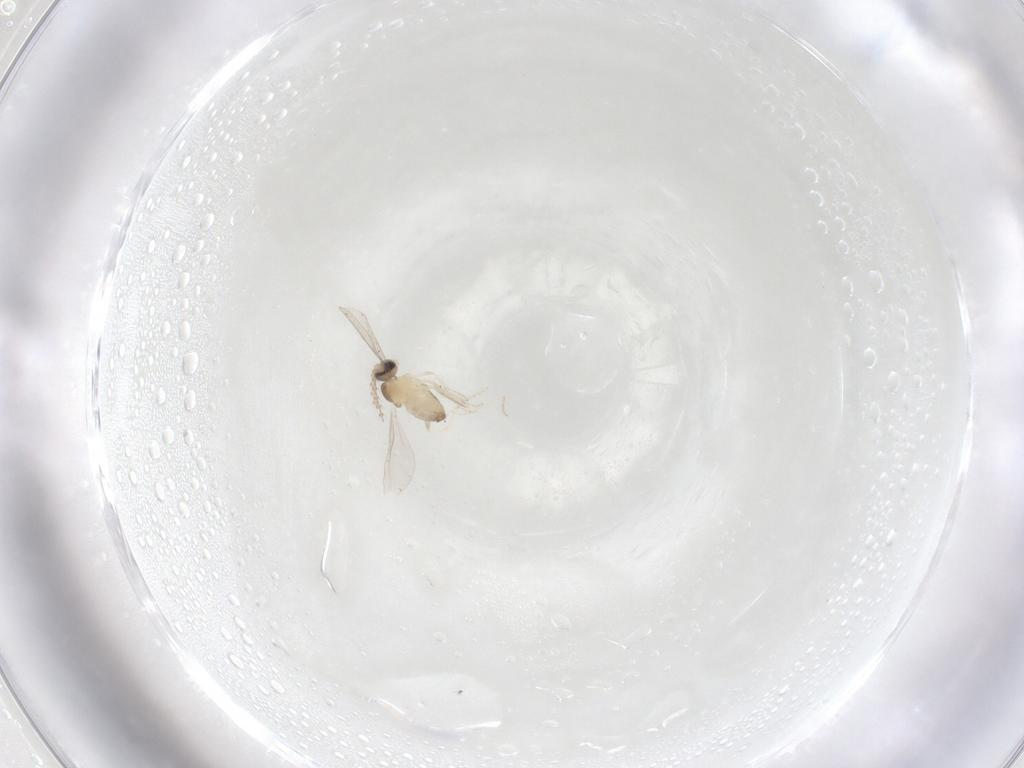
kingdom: Animalia
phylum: Arthropoda
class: Insecta
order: Diptera
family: Cecidomyiidae
